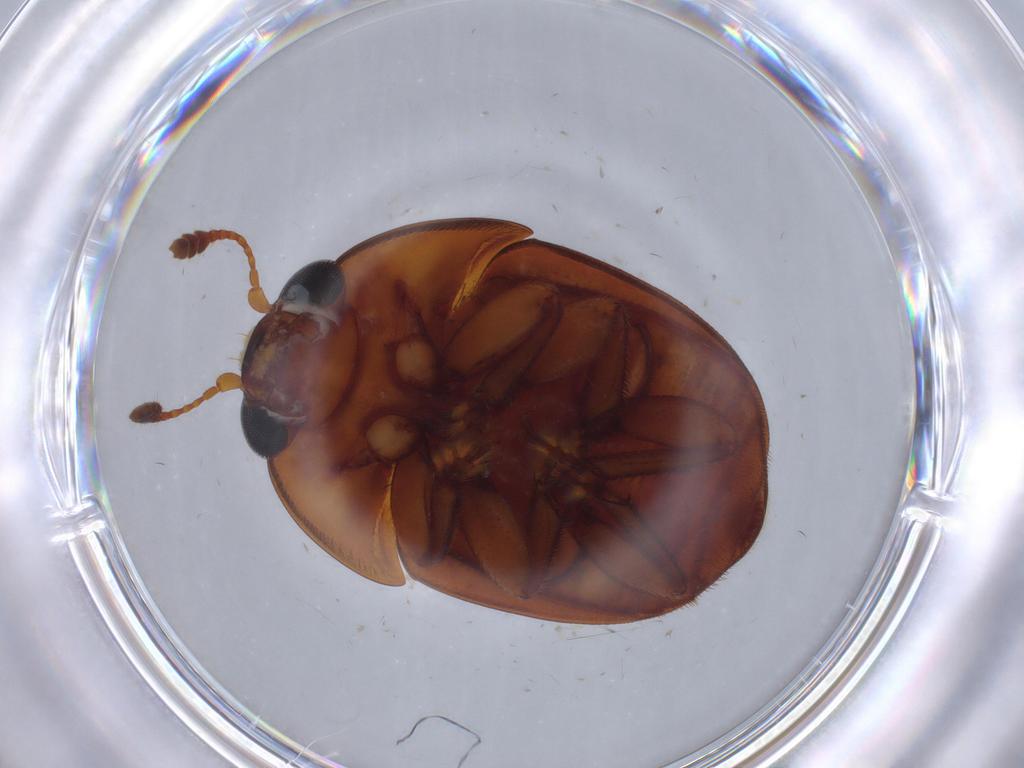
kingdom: Animalia
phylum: Arthropoda
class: Insecta
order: Coleoptera
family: Nitidulidae
